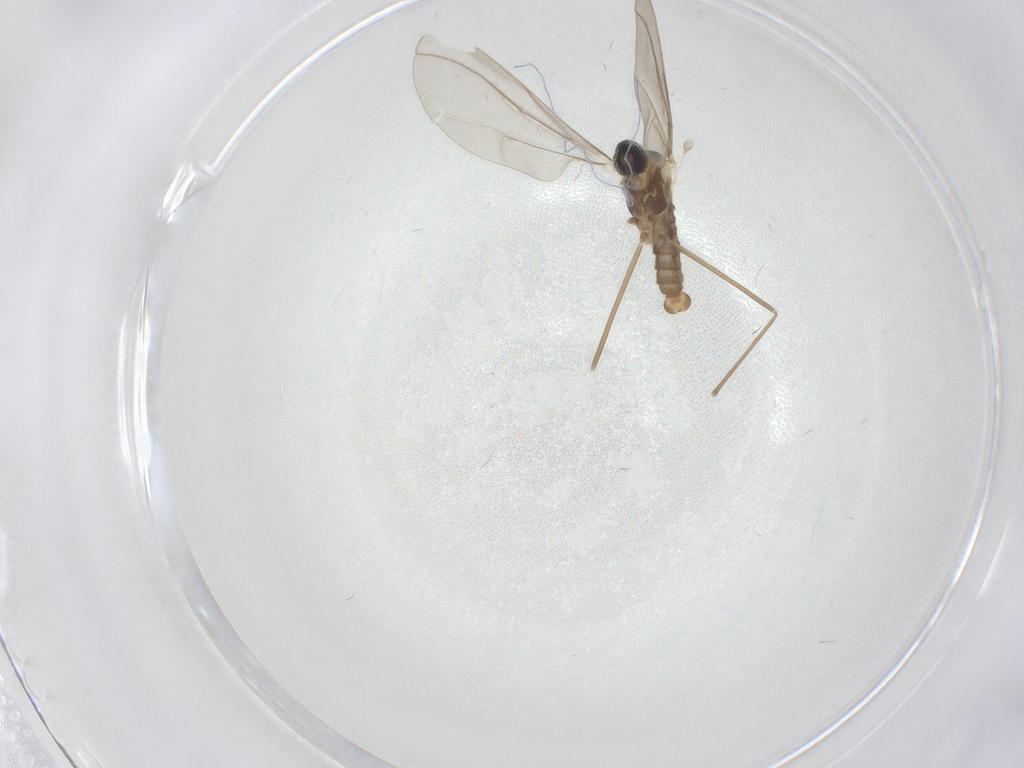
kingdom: Animalia
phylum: Arthropoda
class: Insecta
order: Diptera
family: Cecidomyiidae
